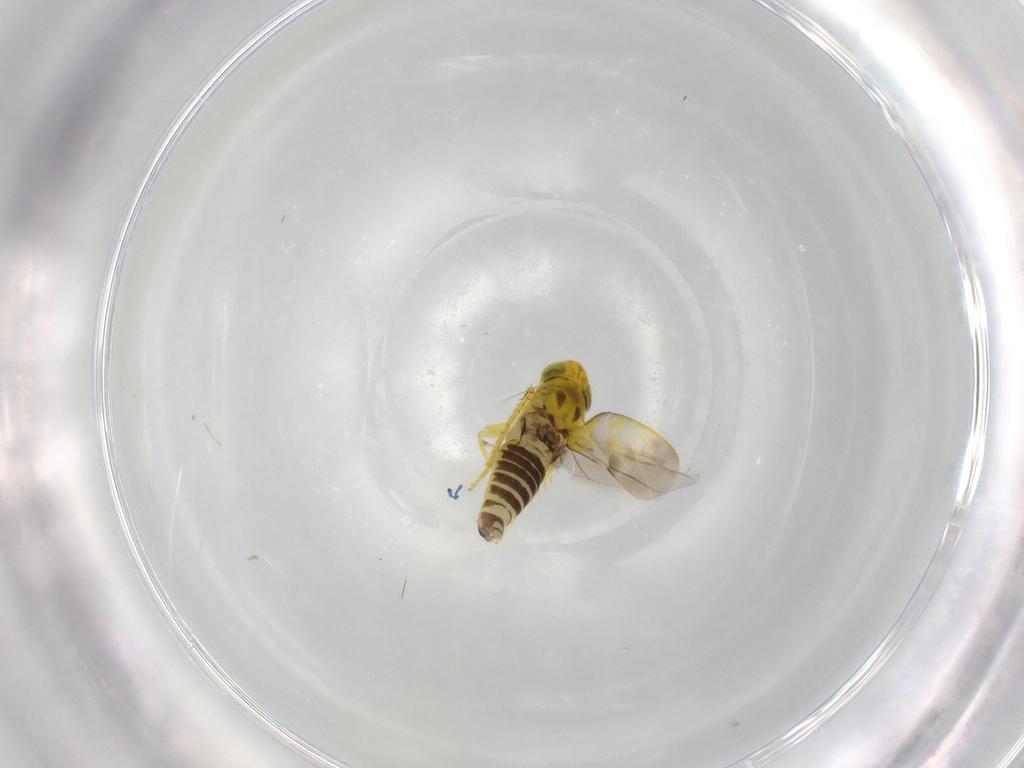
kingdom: Animalia
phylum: Arthropoda
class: Insecta
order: Hemiptera
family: Cicadellidae
